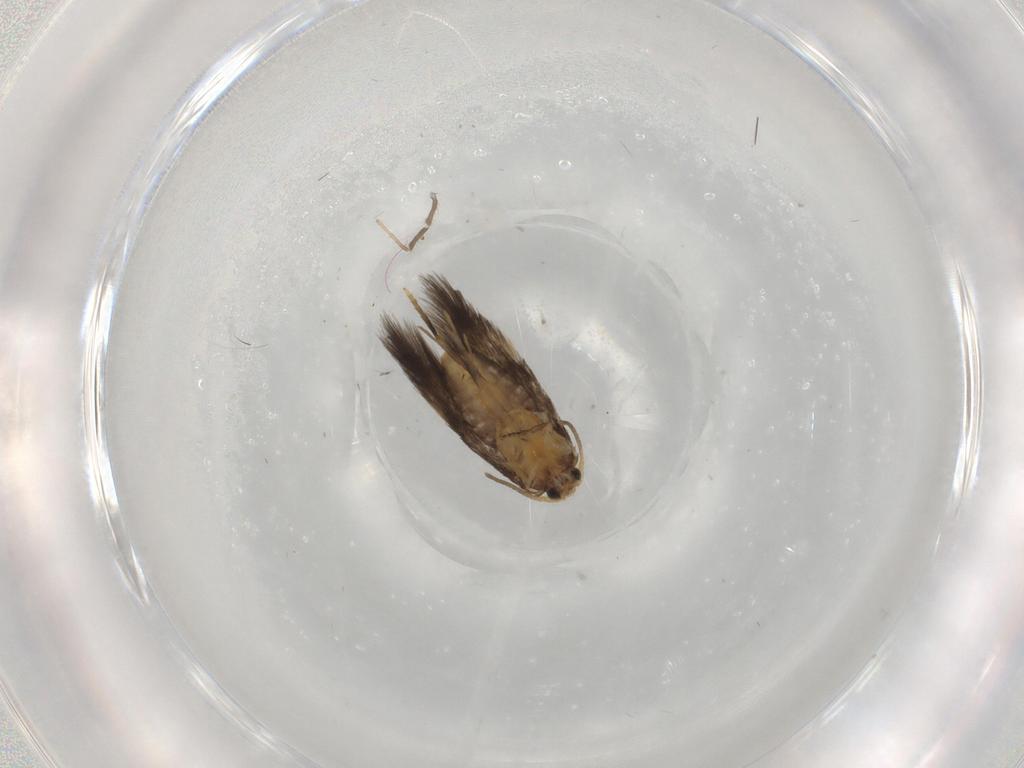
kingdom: Animalia
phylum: Arthropoda
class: Insecta
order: Lepidoptera
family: Nepticulidae
